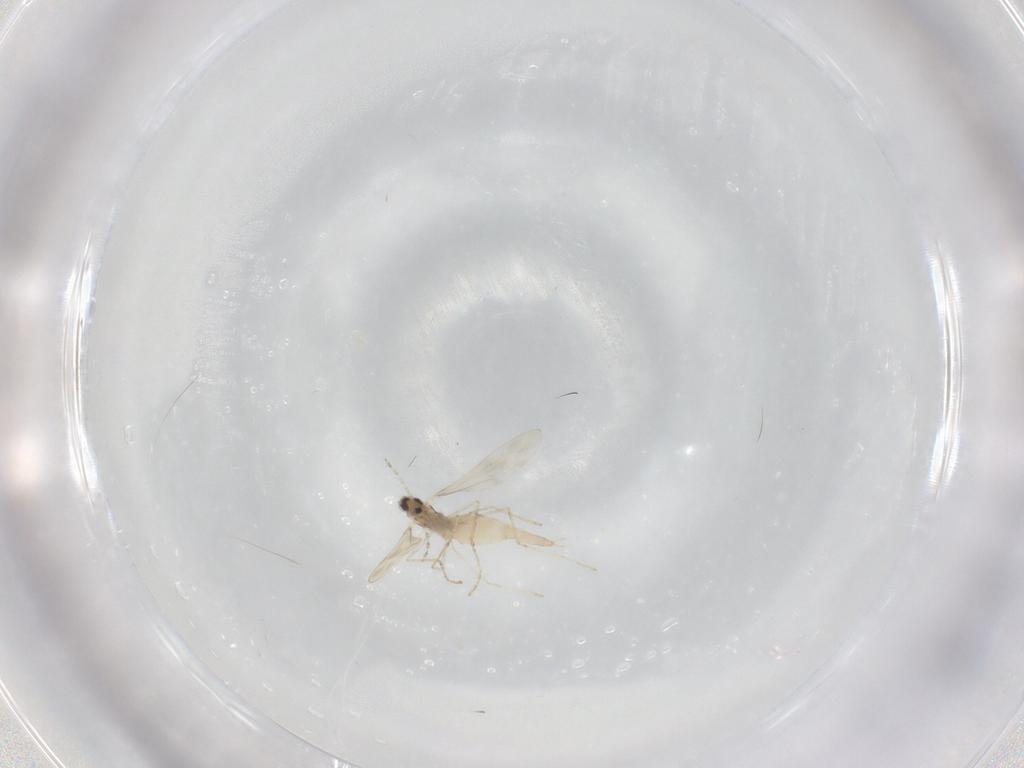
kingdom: Animalia
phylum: Arthropoda
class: Insecta
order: Diptera
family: Cecidomyiidae
